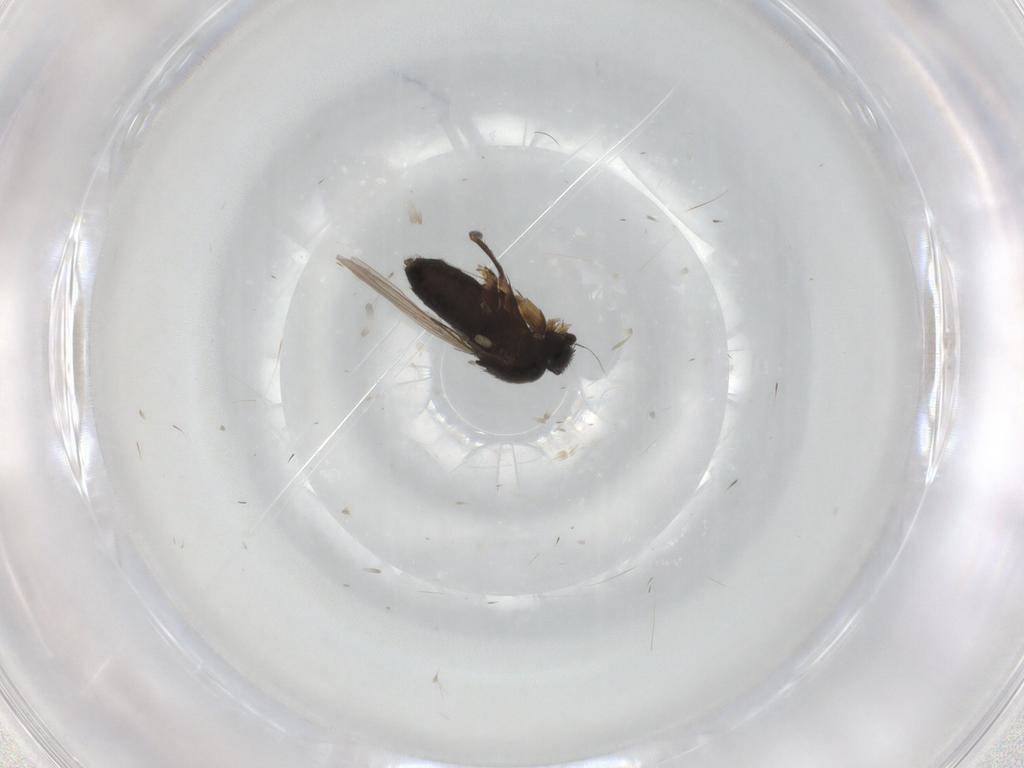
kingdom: Animalia
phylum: Arthropoda
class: Insecta
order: Diptera
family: Phoridae
